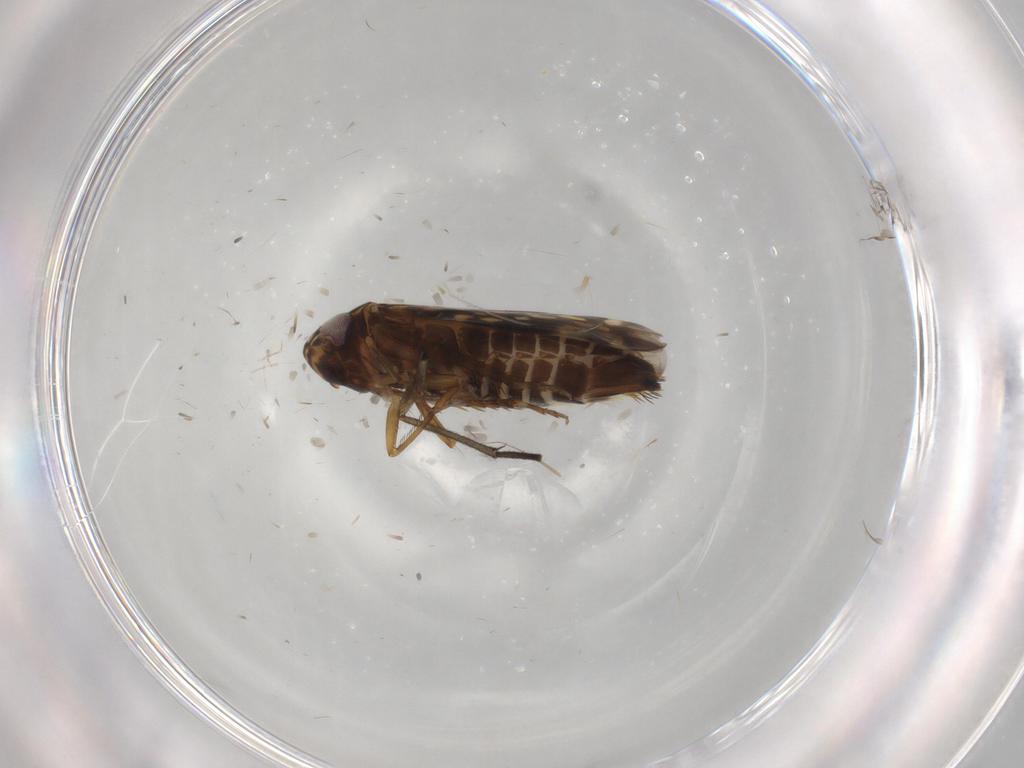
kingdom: Animalia
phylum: Arthropoda
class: Insecta
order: Hemiptera
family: Cicadellidae
